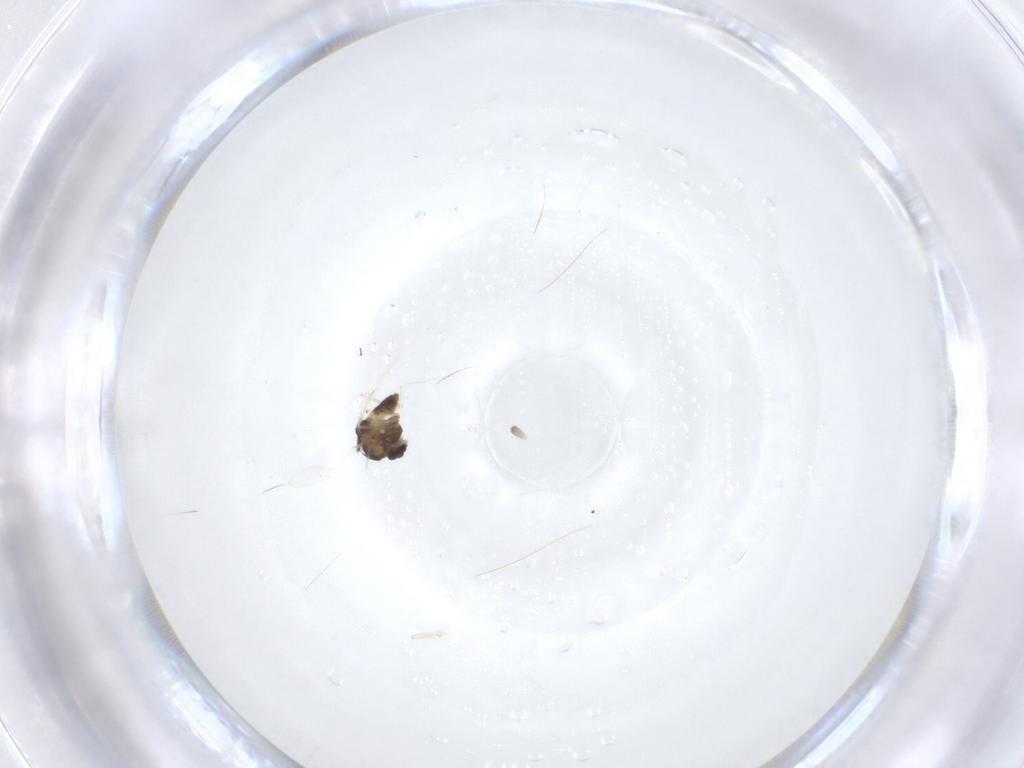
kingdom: Animalia
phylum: Arthropoda
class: Insecta
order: Diptera
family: Chironomidae
